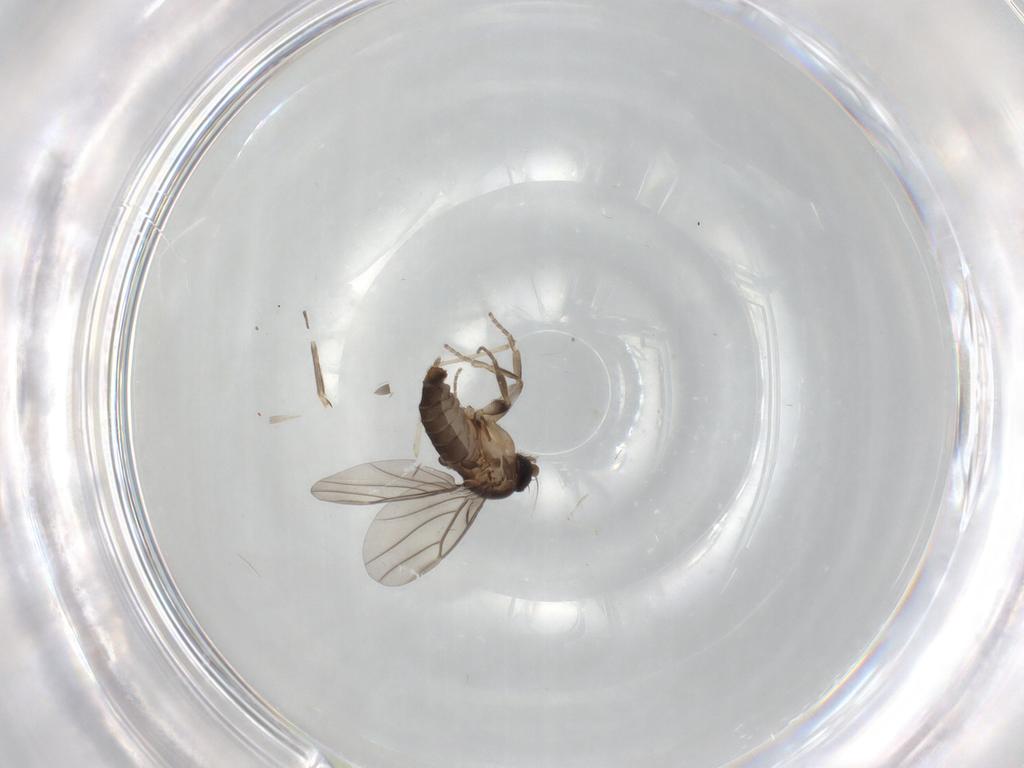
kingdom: Animalia
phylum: Arthropoda
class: Insecta
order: Diptera
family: Phoridae
